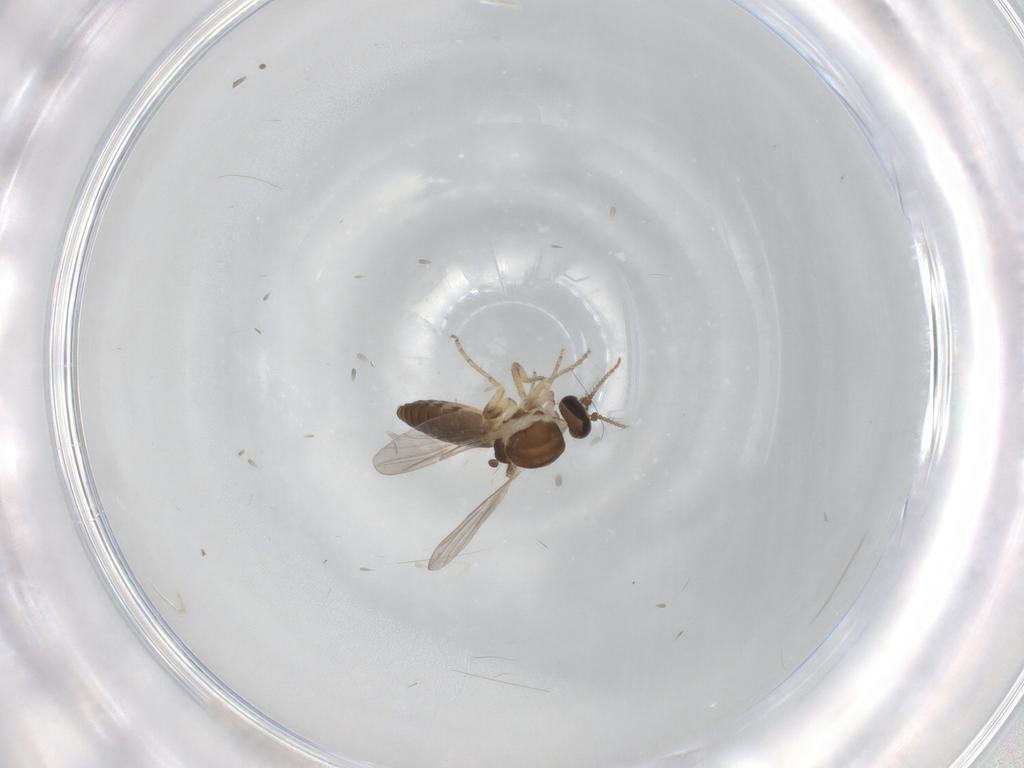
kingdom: Animalia
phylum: Arthropoda
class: Insecta
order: Diptera
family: Ceratopogonidae
